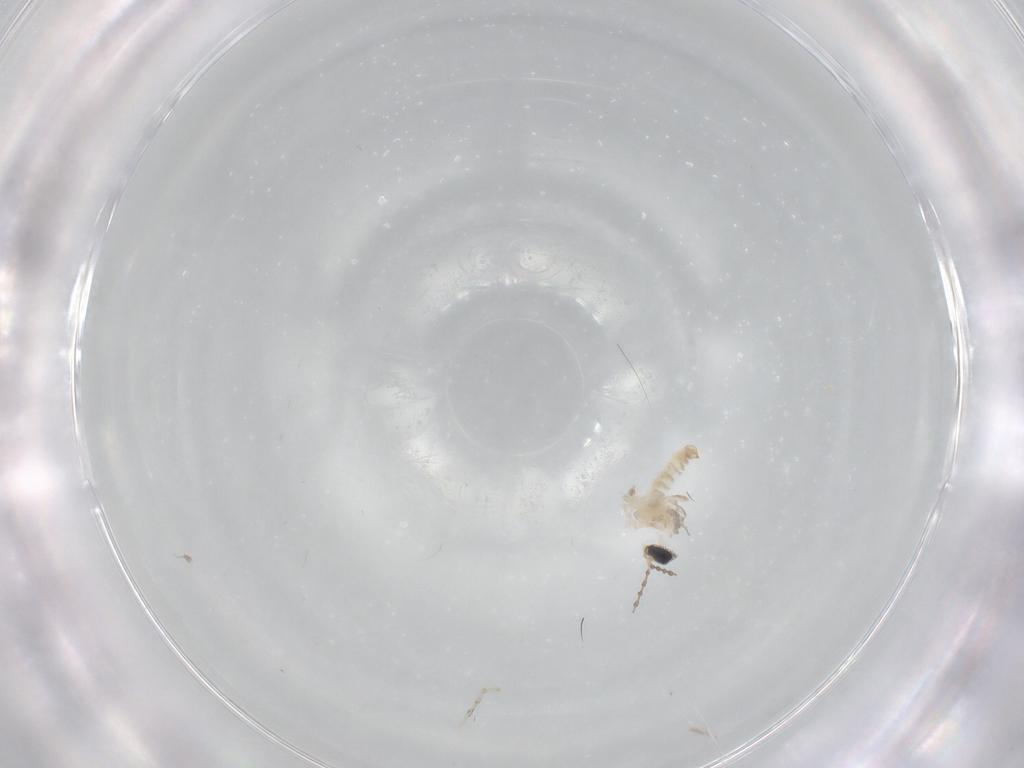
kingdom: Animalia
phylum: Arthropoda
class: Insecta
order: Diptera
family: Cecidomyiidae
